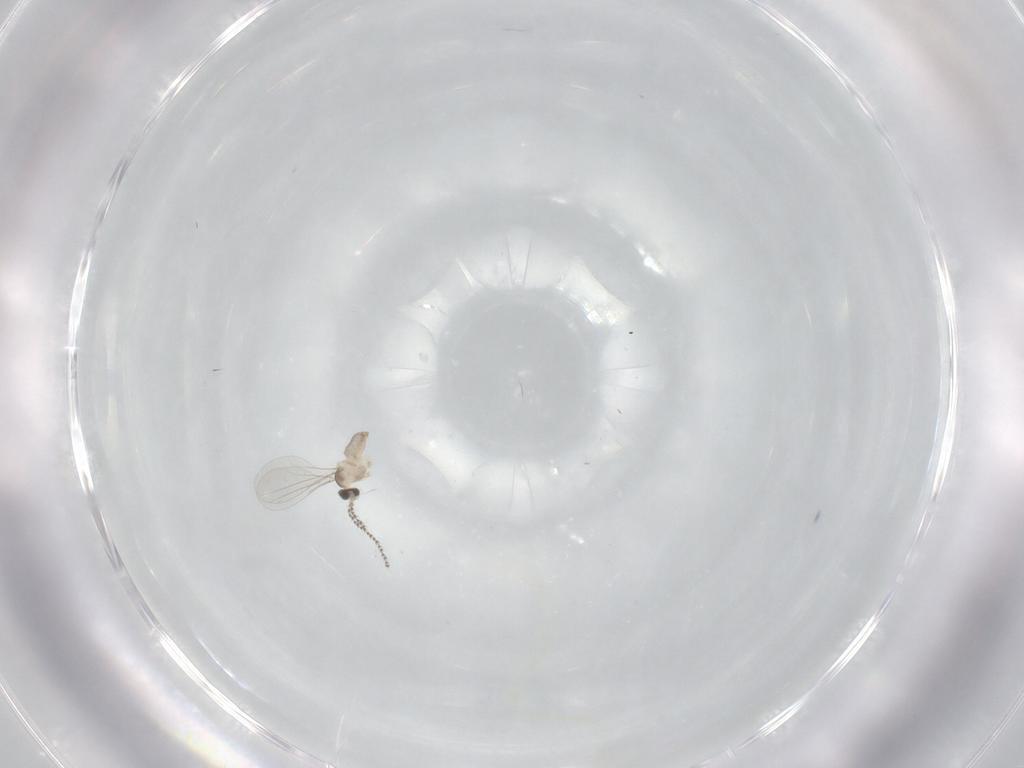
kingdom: Animalia
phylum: Arthropoda
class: Insecta
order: Diptera
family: Cecidomyiidae
